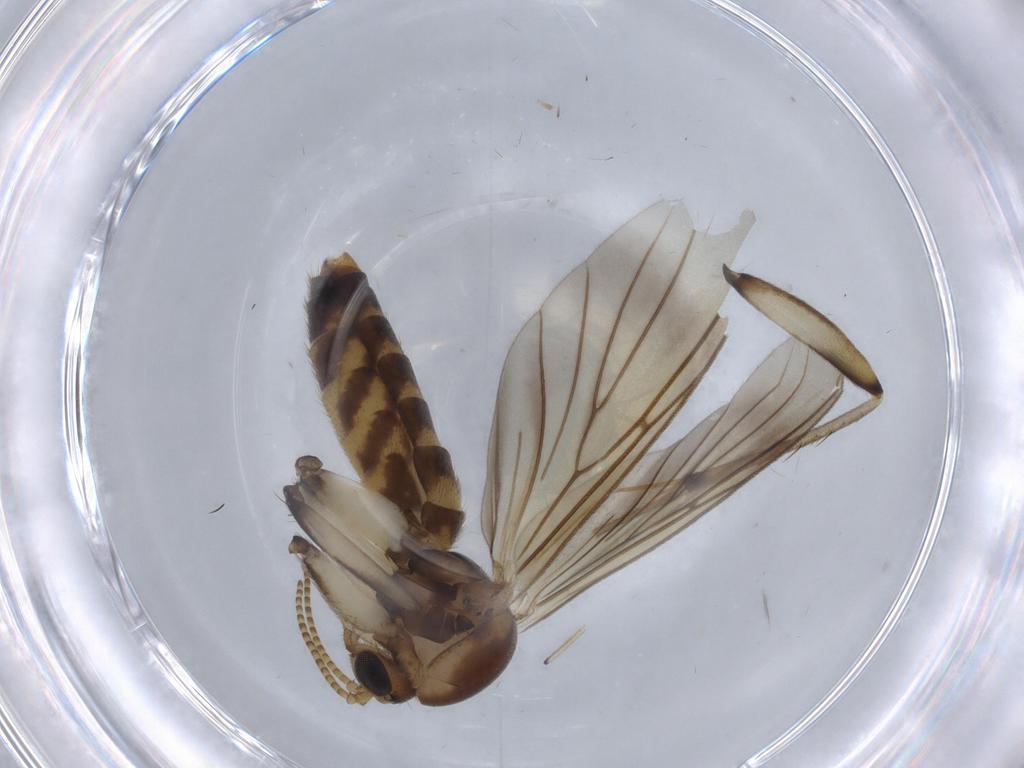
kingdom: Animalia
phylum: Arthropoda
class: Insecta
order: Diptera
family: Mycetophilidae
